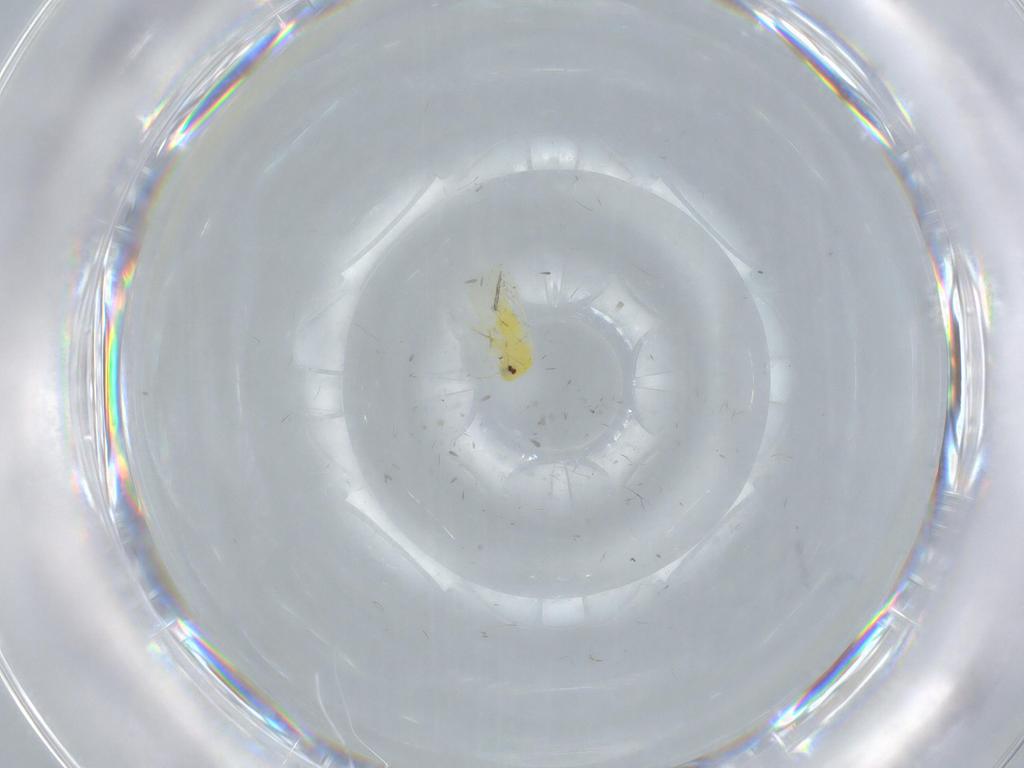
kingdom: Animalia
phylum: Arthropoda
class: Insecta
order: Hemiptera
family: Aleyrodidae
